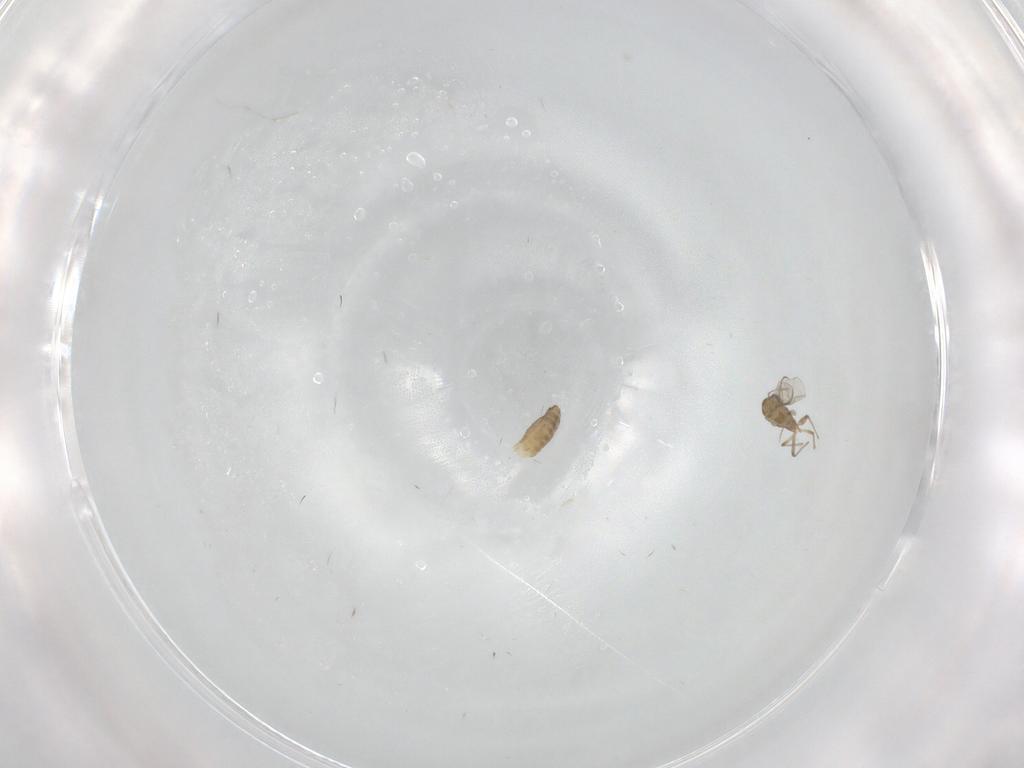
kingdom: Animalia
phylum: Arthropoda
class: Insecta
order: Diptera
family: Chironomidae
